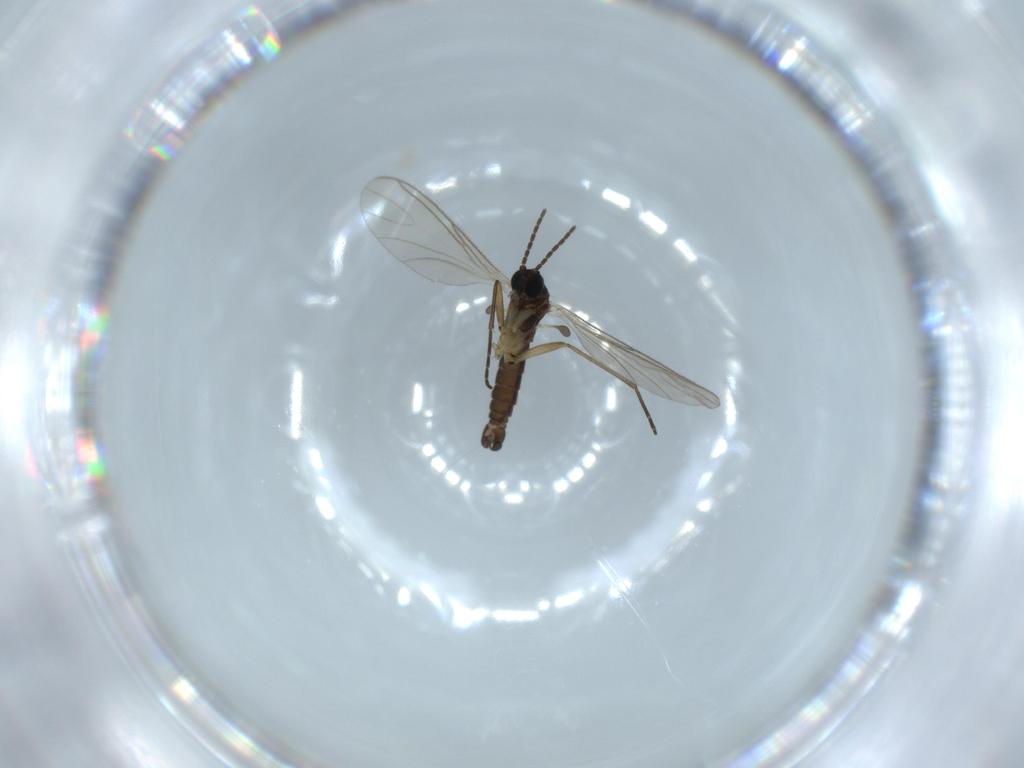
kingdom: Animalia
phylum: Arthropoda
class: Insecta
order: Diptera
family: Sciaridae
